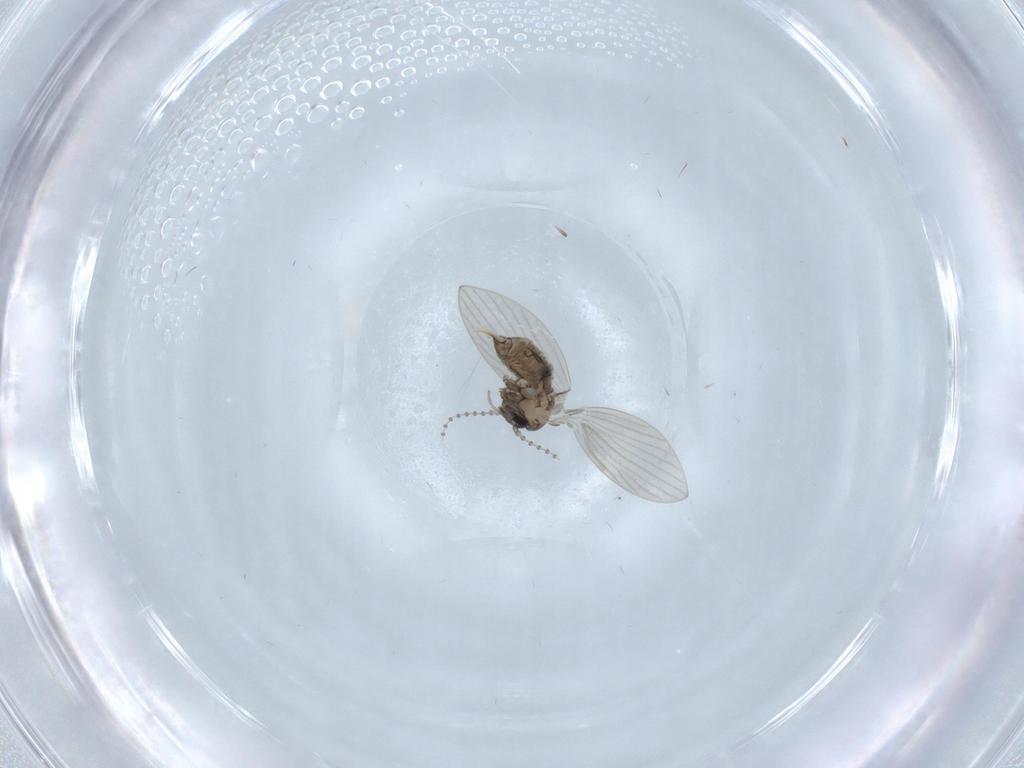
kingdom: Animalia
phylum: Arthropoda
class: Insecta
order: Diptera
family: Psychodidae
